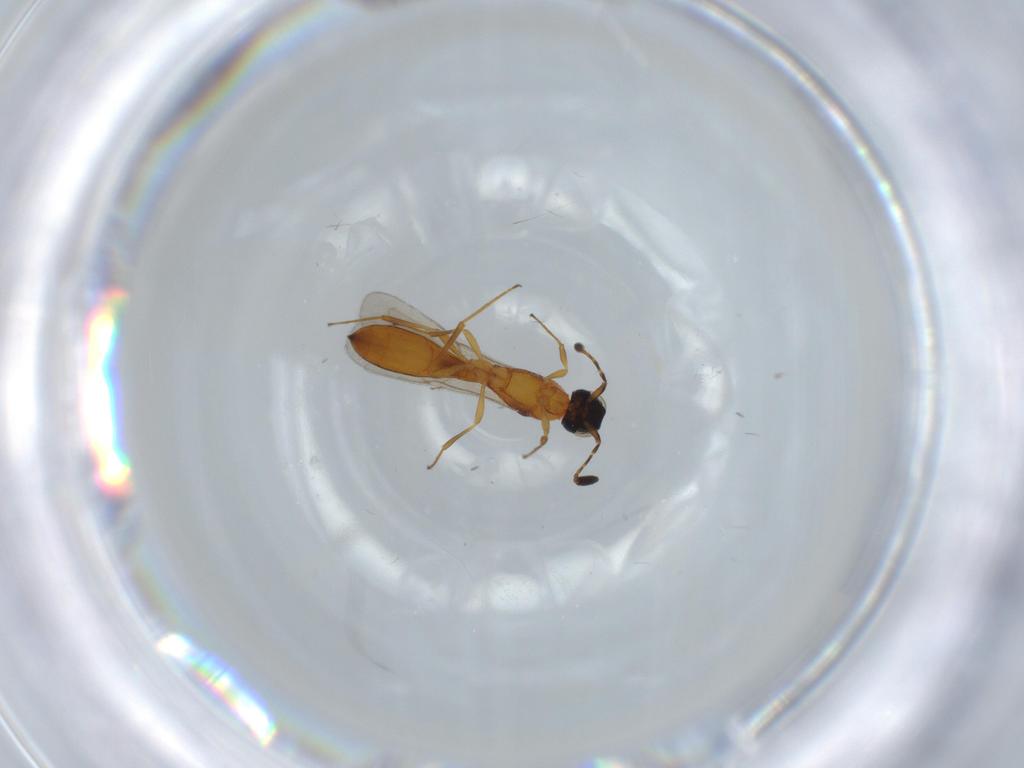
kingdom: Animalia
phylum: Arthropoda
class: Insecta
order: Hymenoptera
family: Scelionidae
